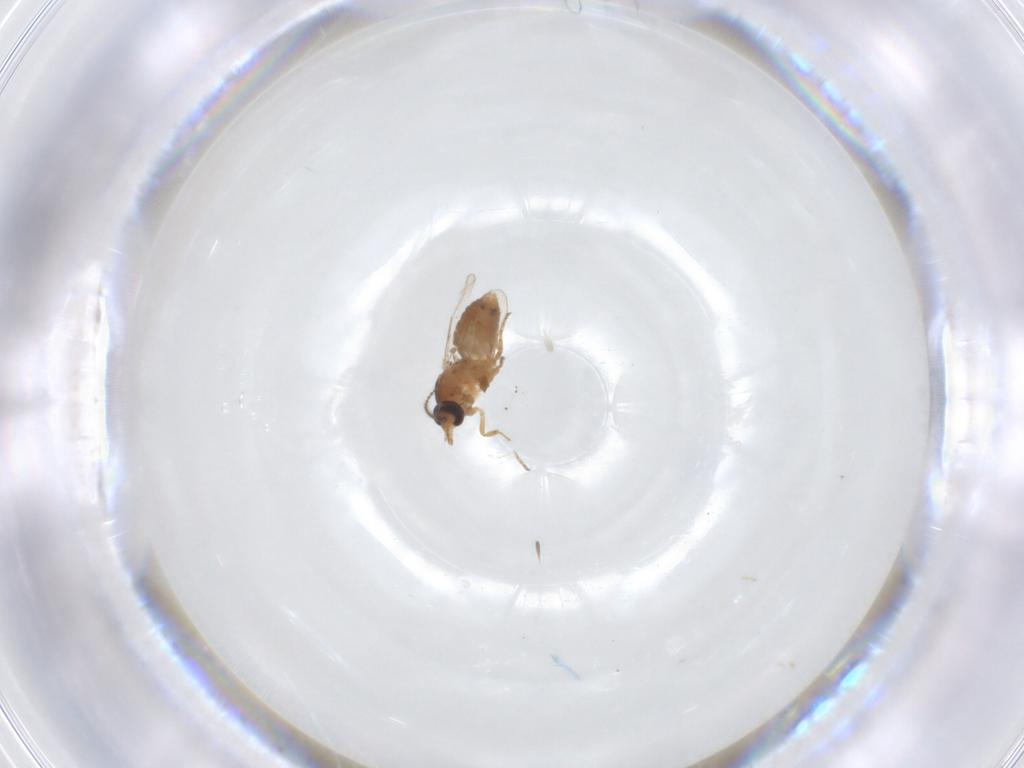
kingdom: Animalia
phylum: Arthropoda
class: Insecta
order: Diptera
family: Ceratopogonidae
